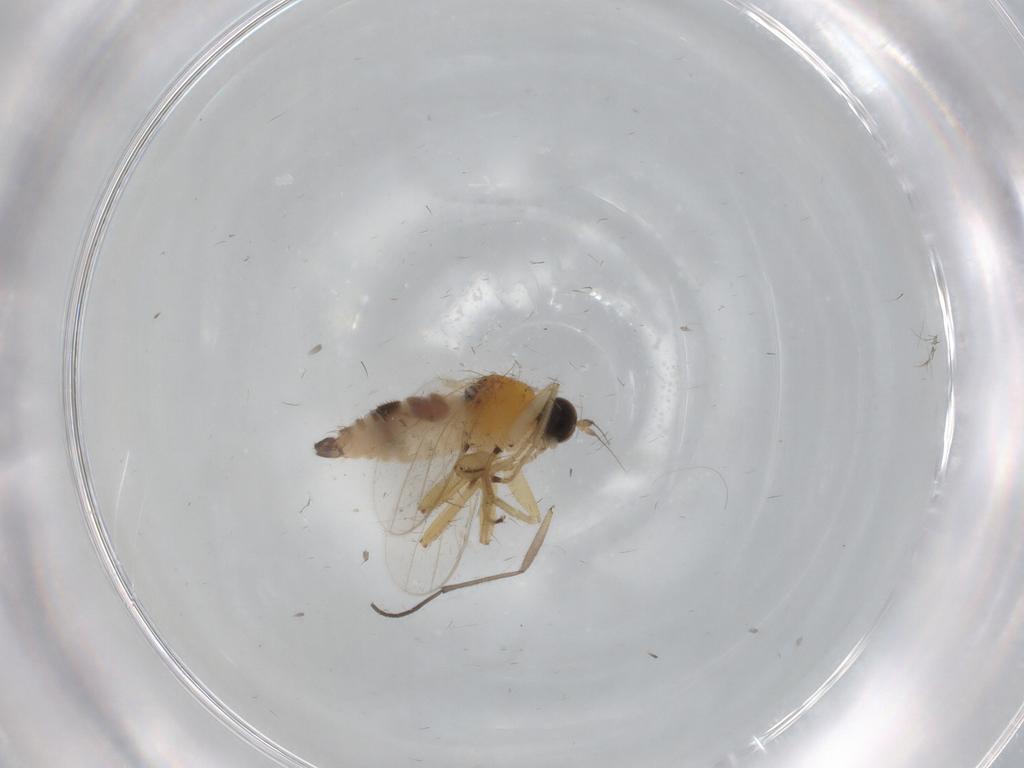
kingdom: Animalia
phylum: Arthropoda
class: Insecta
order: Diptera
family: Hybotidae
